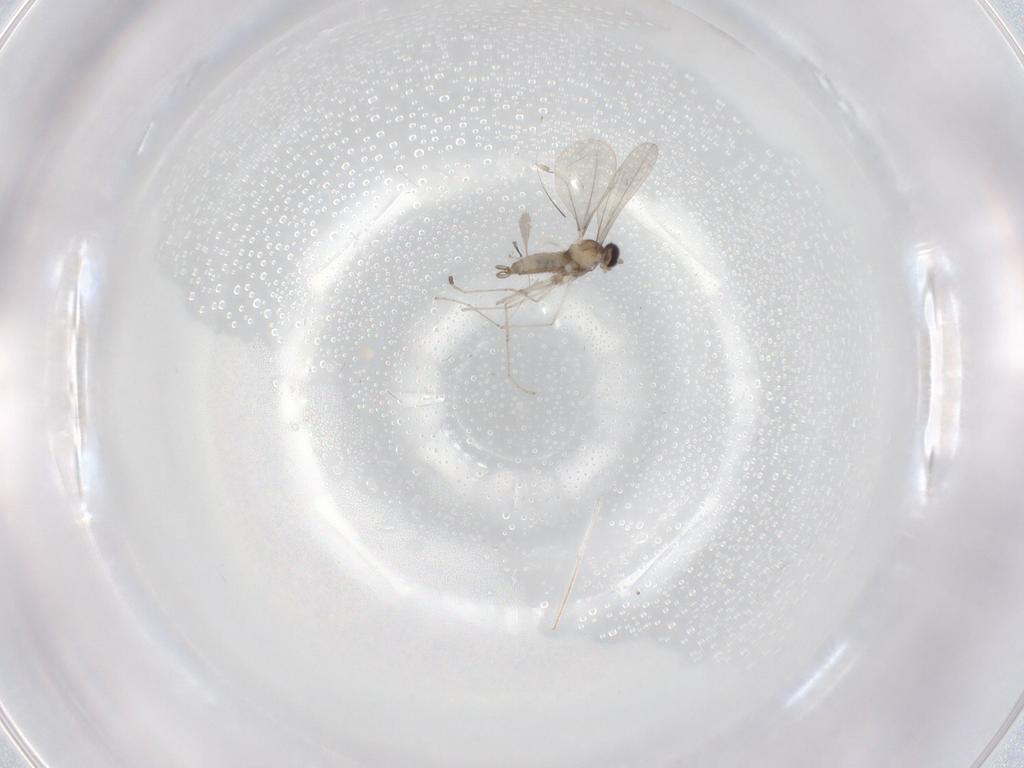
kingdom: Animalia
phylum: Arthropoda
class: Insecta
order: Diptera
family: Cecidomyiidae
